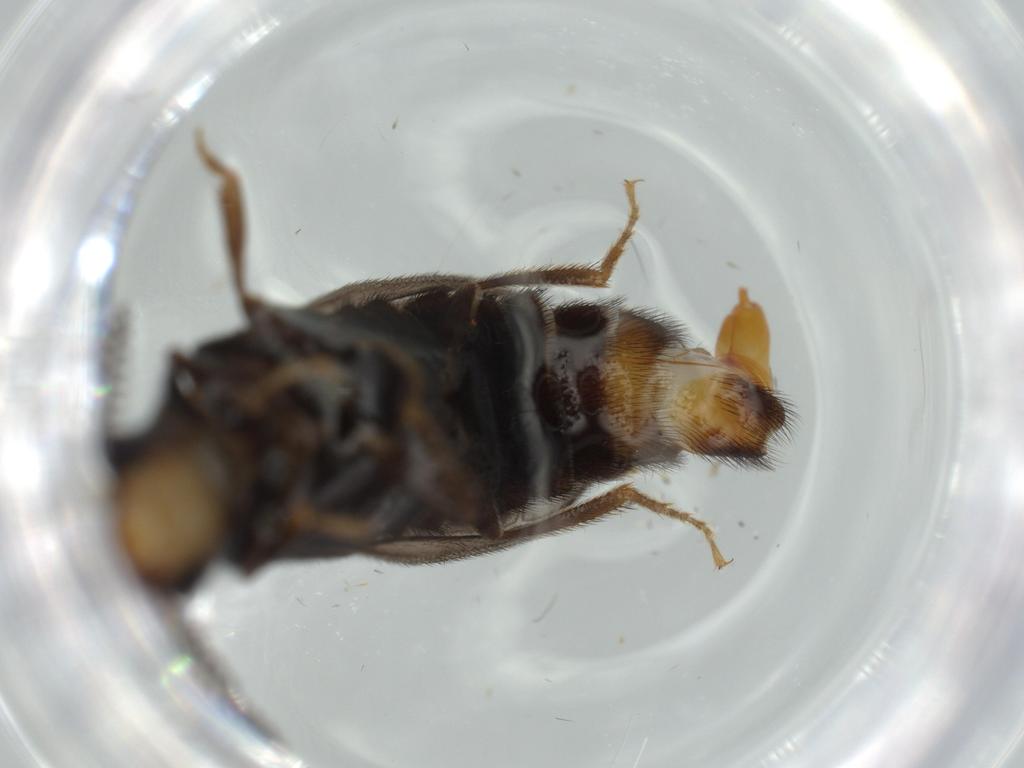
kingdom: Animalia
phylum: Arthropoda
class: Insecta
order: Coleoptera
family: Phengodidae
